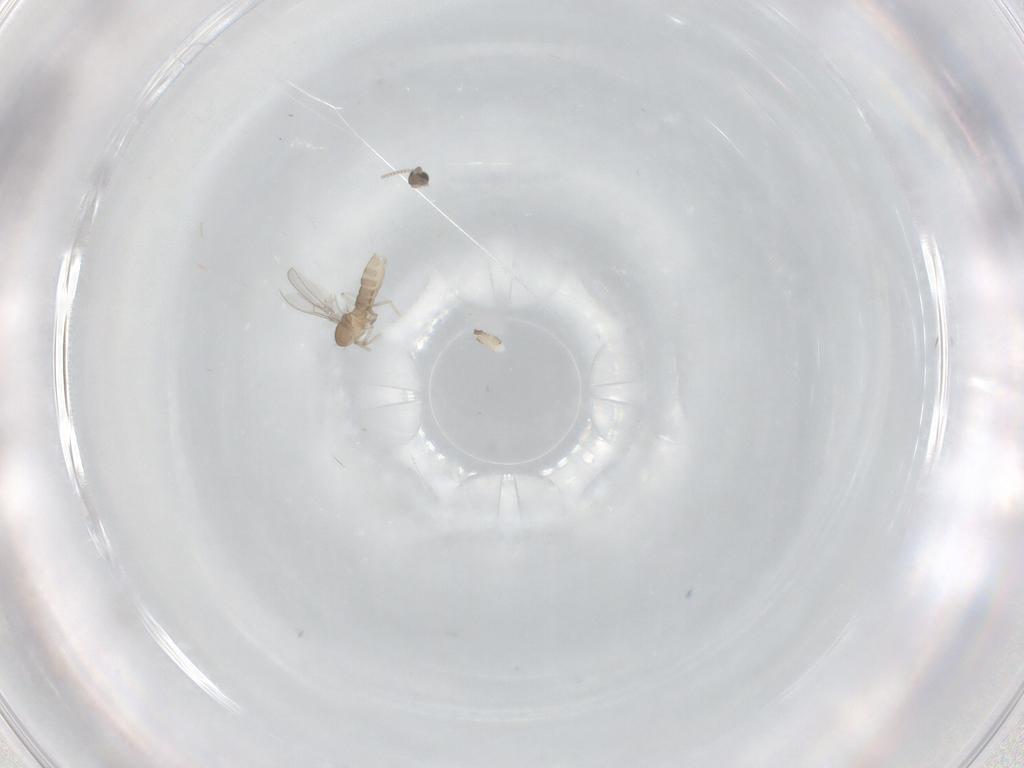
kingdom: Animalia
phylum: Arthropoda
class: Insecta
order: Diptera
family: Cecidomyiidae
